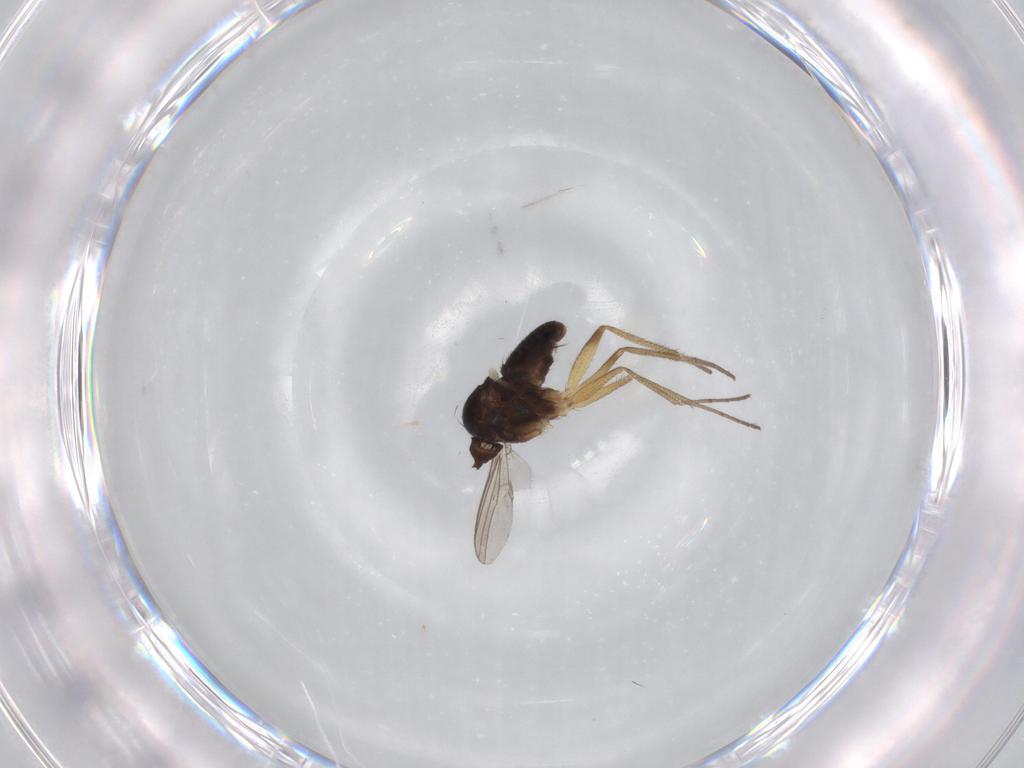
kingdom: Animalia
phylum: Arthropoda
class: Insecta
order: Diptera
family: Dolichopodidae
